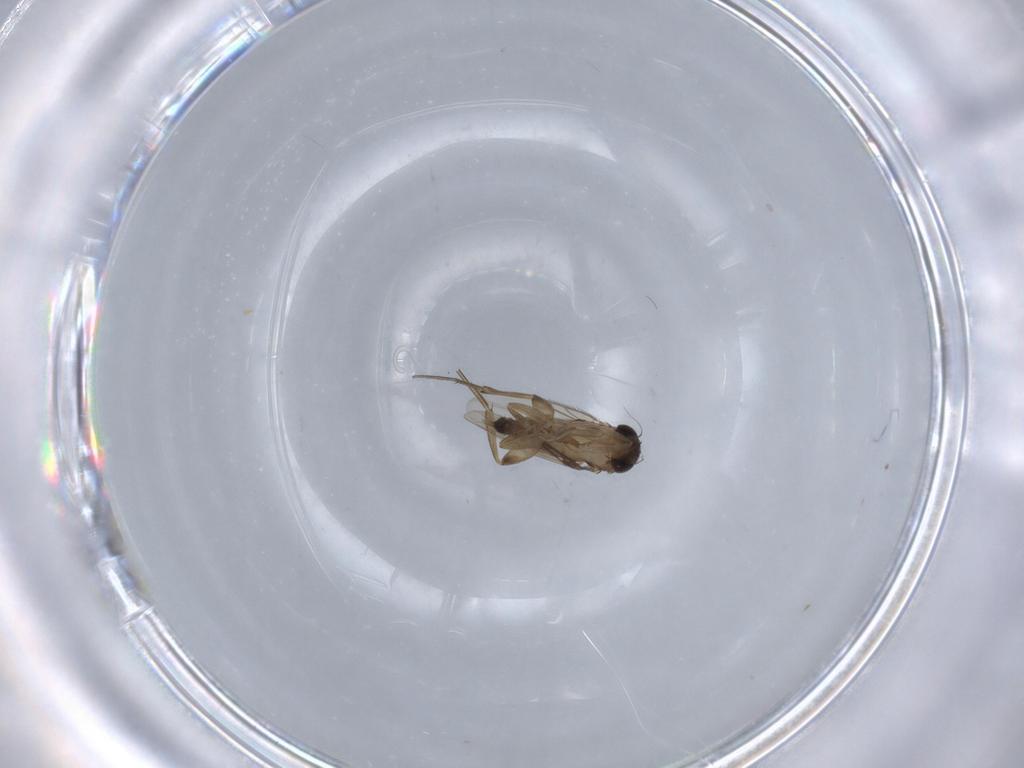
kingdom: Animalia
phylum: Arthropoda
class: Insecta
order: Diptera
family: Phoridae
